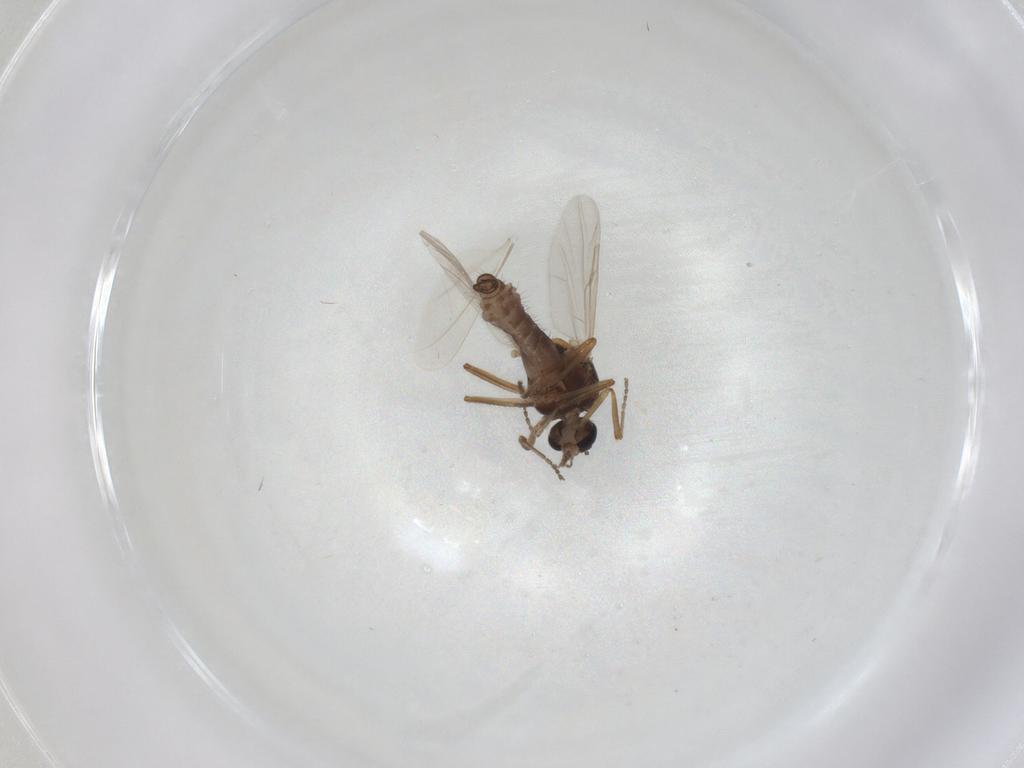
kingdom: Animalia
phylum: Arthropoda
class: Insecta
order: Diptera
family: Ceratopogonidae
